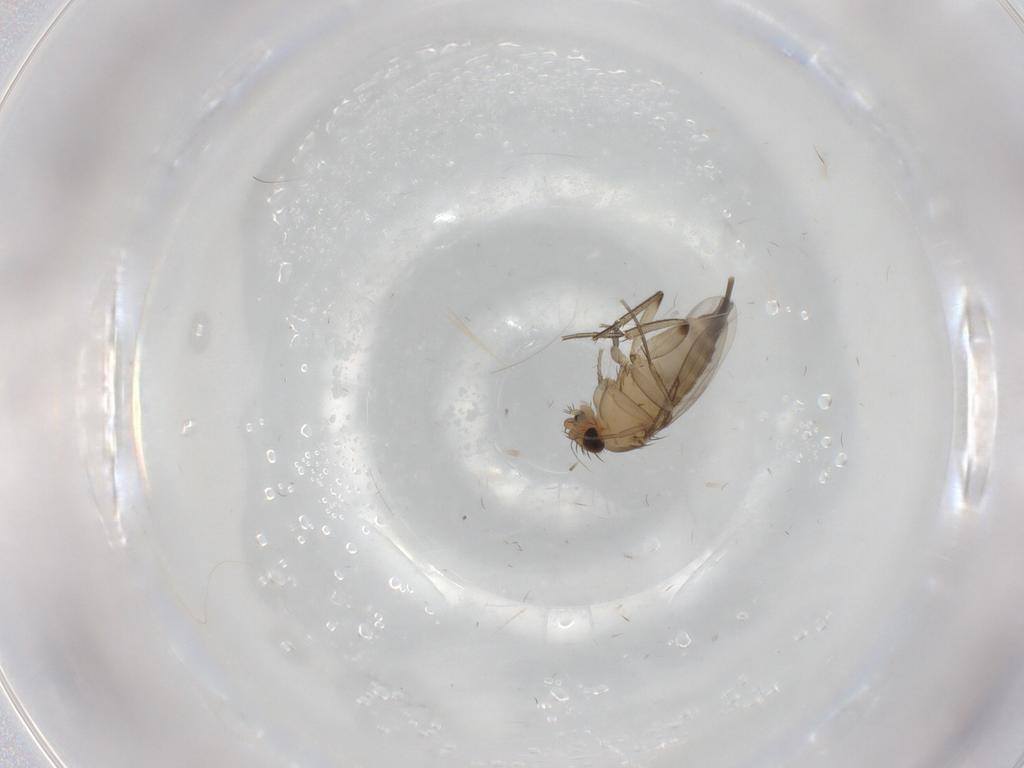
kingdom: Animalia
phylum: Arthropoda
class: Insecta
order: Diptera
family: Phoridae
